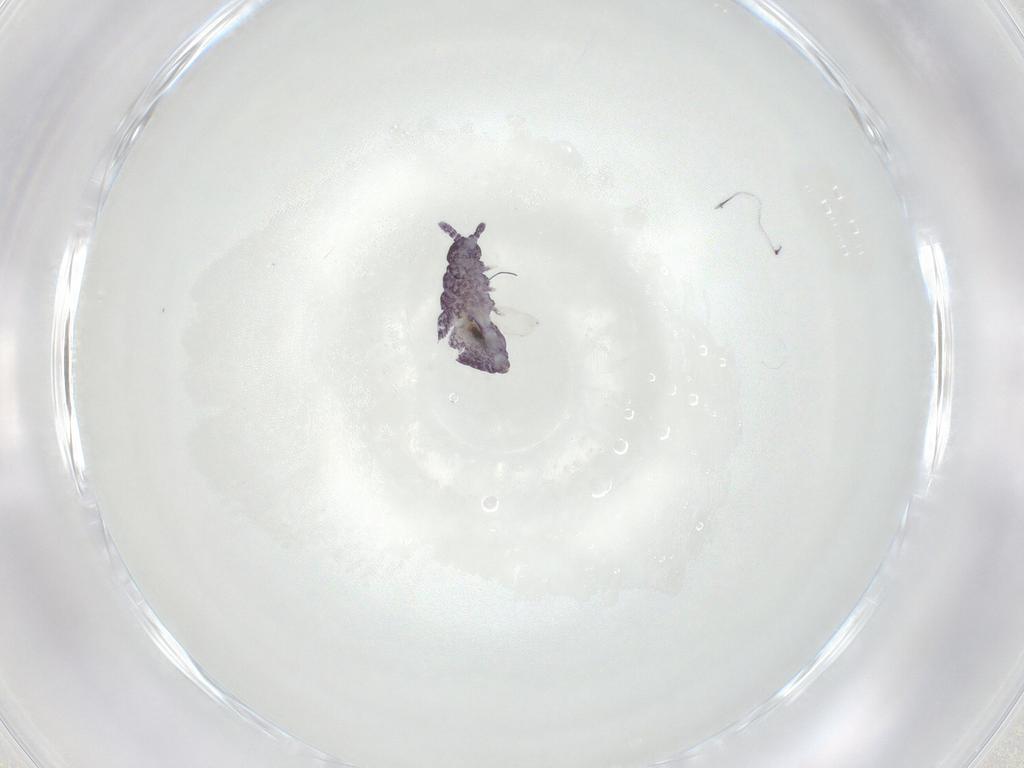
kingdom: Animalia
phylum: Arthropoda
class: Collembola
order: Poduromorpha
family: Brachystomellidae
